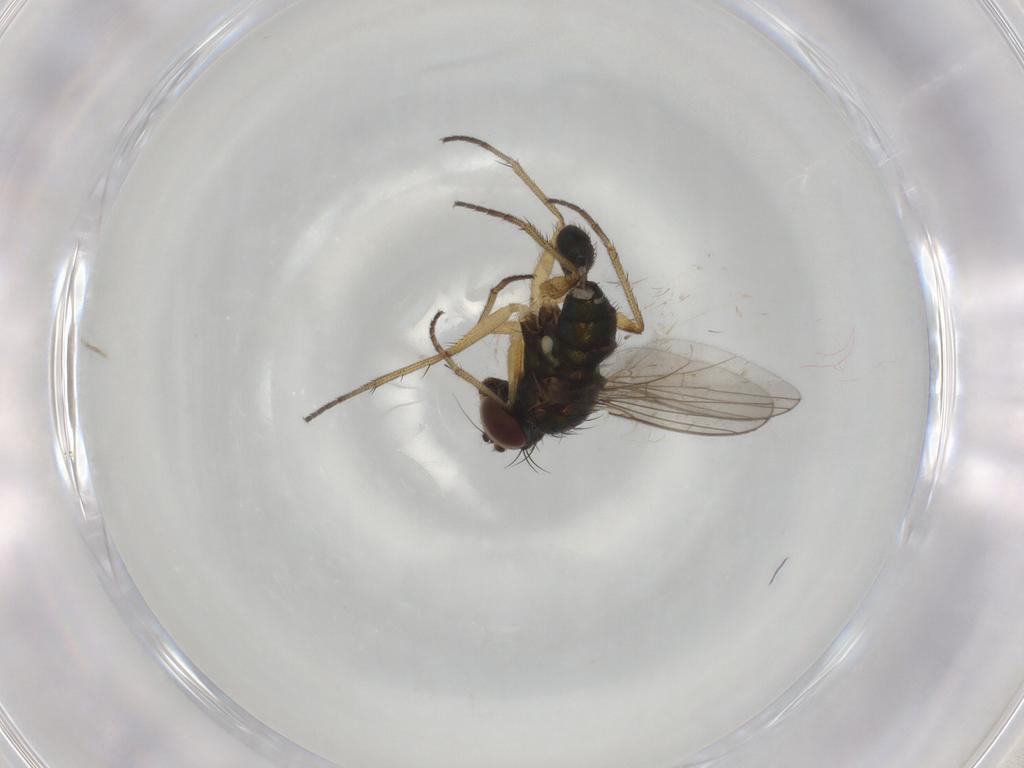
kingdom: Animalia
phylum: Arthropoda
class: Insecta
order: Diptera
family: Dolichopodidae
